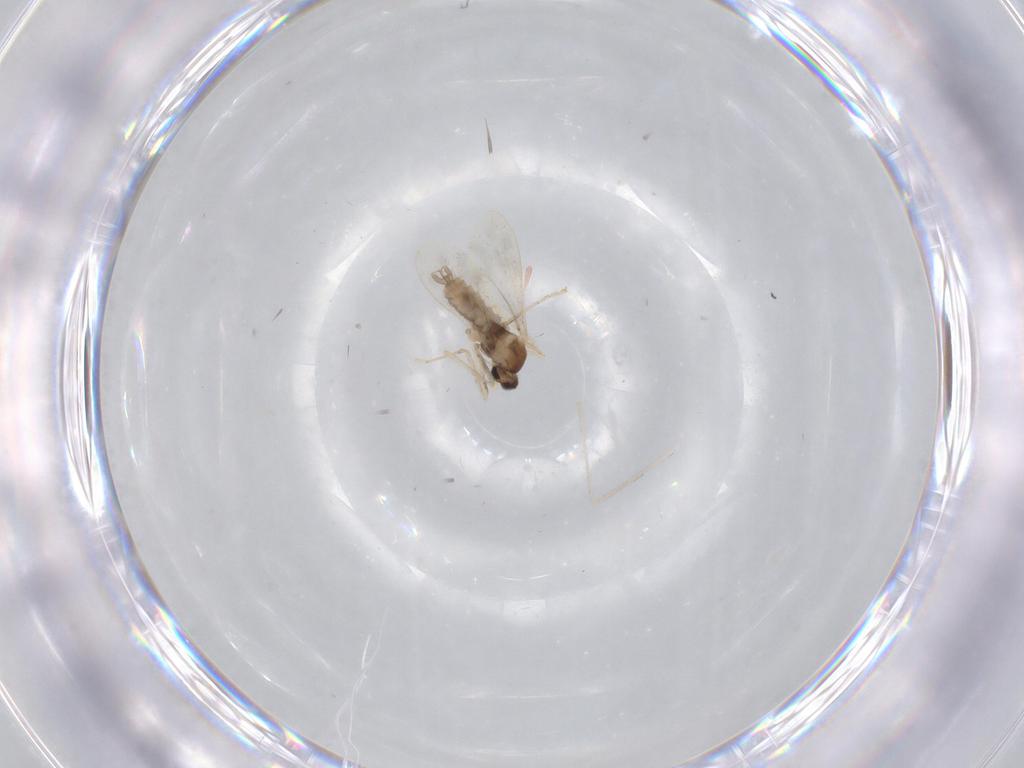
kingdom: Animalia
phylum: Arthropoda
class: Insecta
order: Diptera
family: Cecidomyiidae
